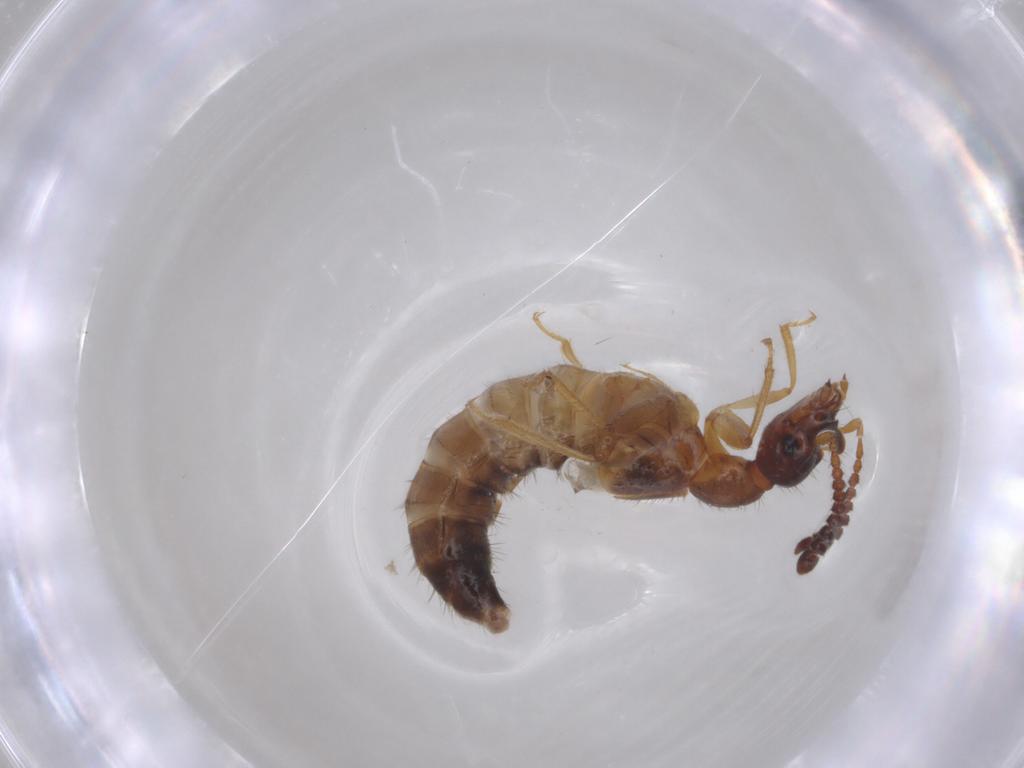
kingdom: Animalia
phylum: Arthropoda
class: Insecta
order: Coleoptera
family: Staphylinidae
